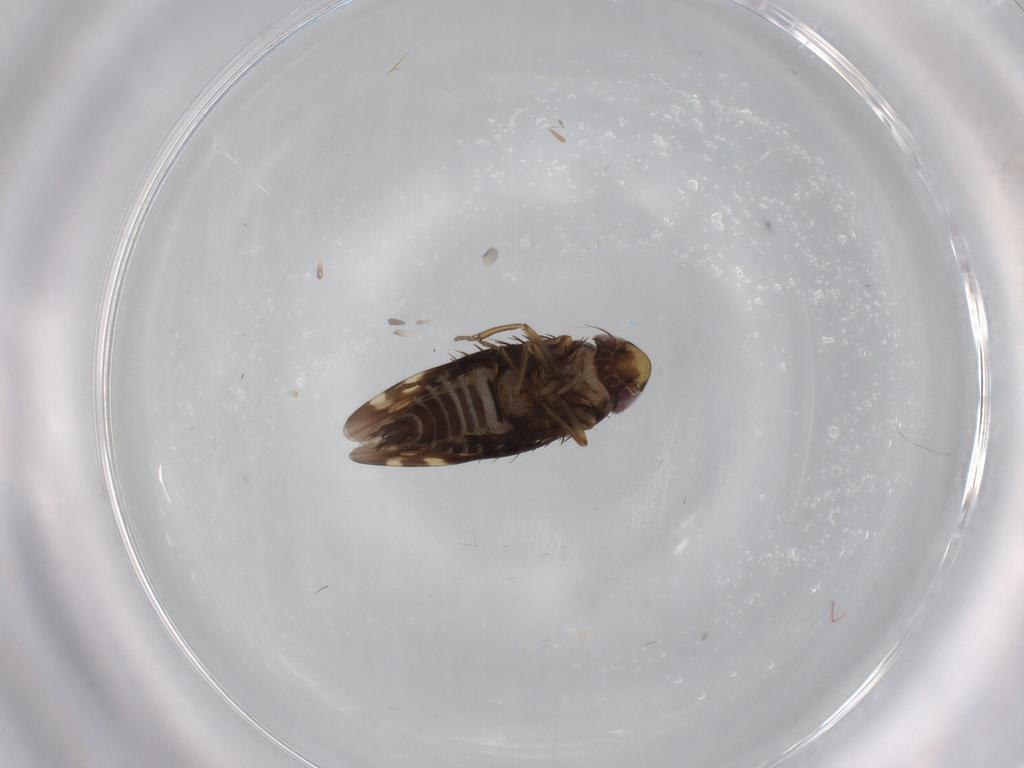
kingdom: Animalia
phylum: Arthropoda
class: Insecta
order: Hemiptera
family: Cicadellidae
